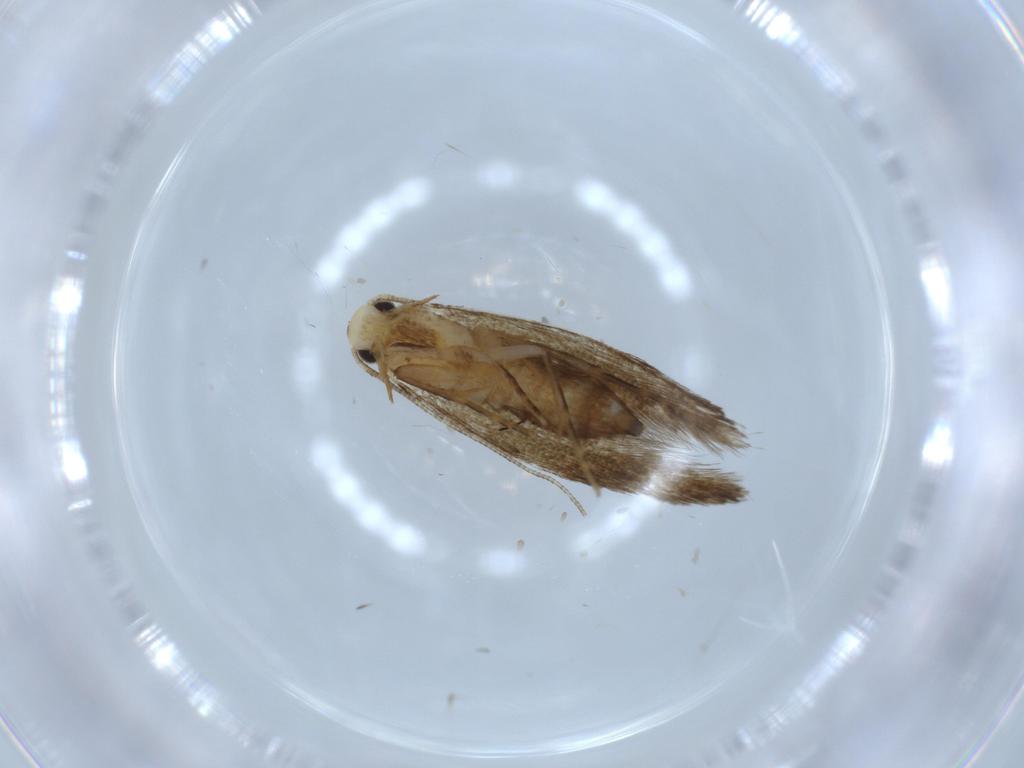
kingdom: Animalia
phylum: Arthropoda
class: Insecta
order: Lepidoptera
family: Tineidae
